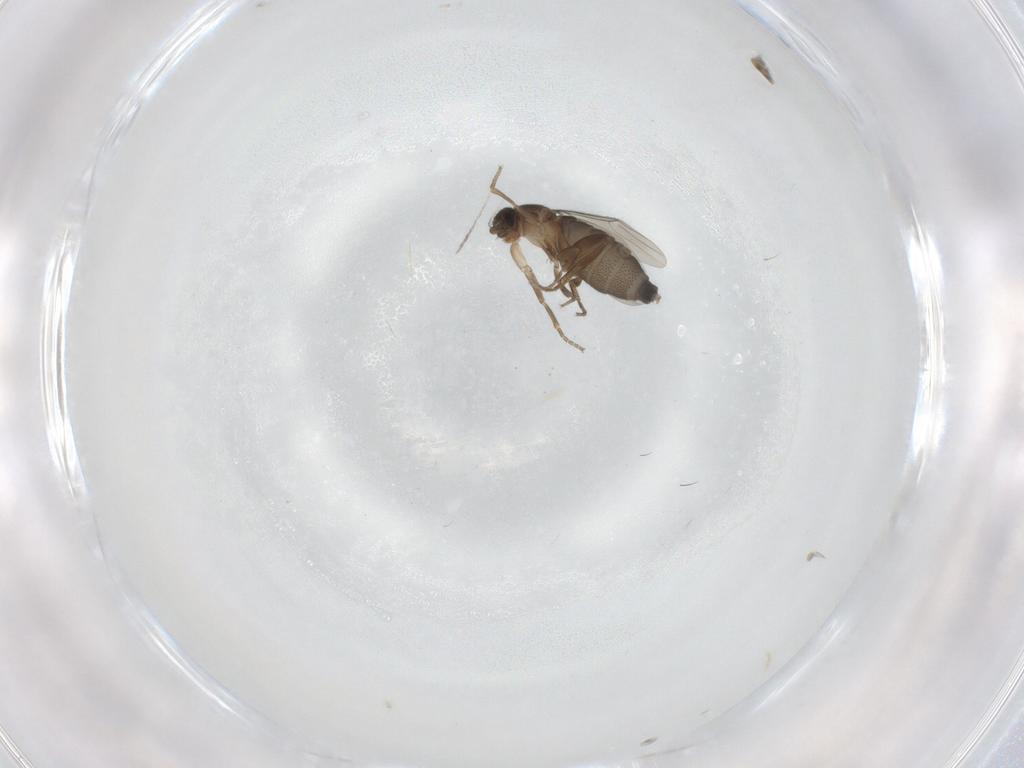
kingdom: Animalia
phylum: Arthropoda
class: Insecta
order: Diptera
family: Phoridae
